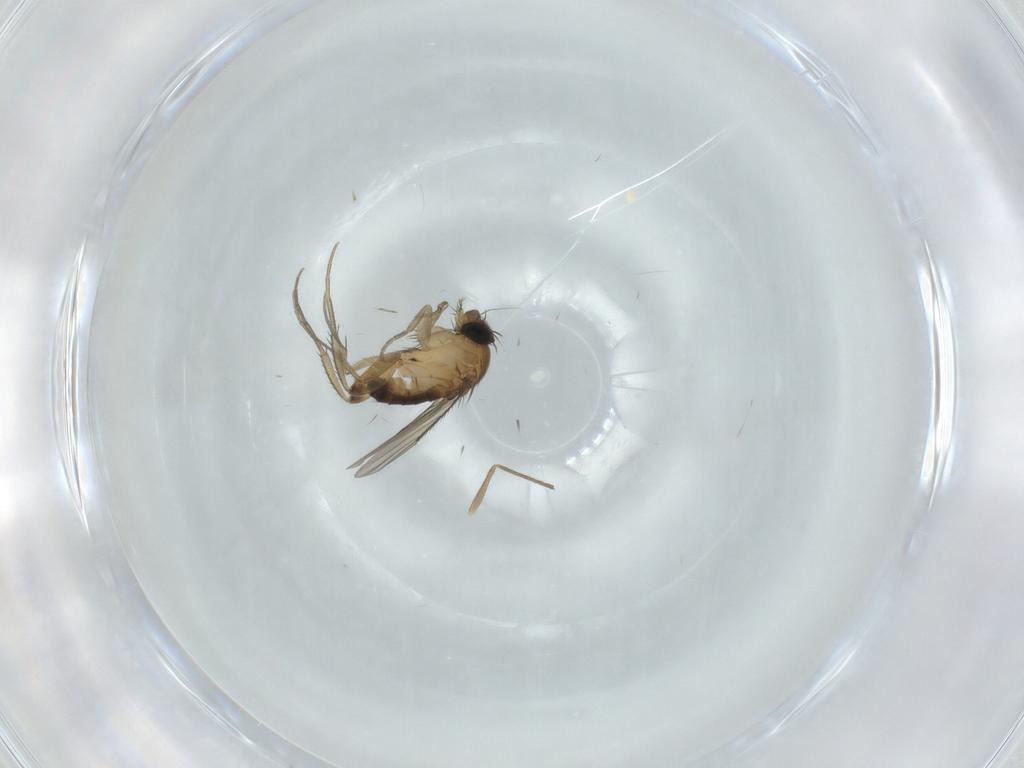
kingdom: Animalia
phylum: Arthropoda
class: Insecta
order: Diptera
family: Phoridae
